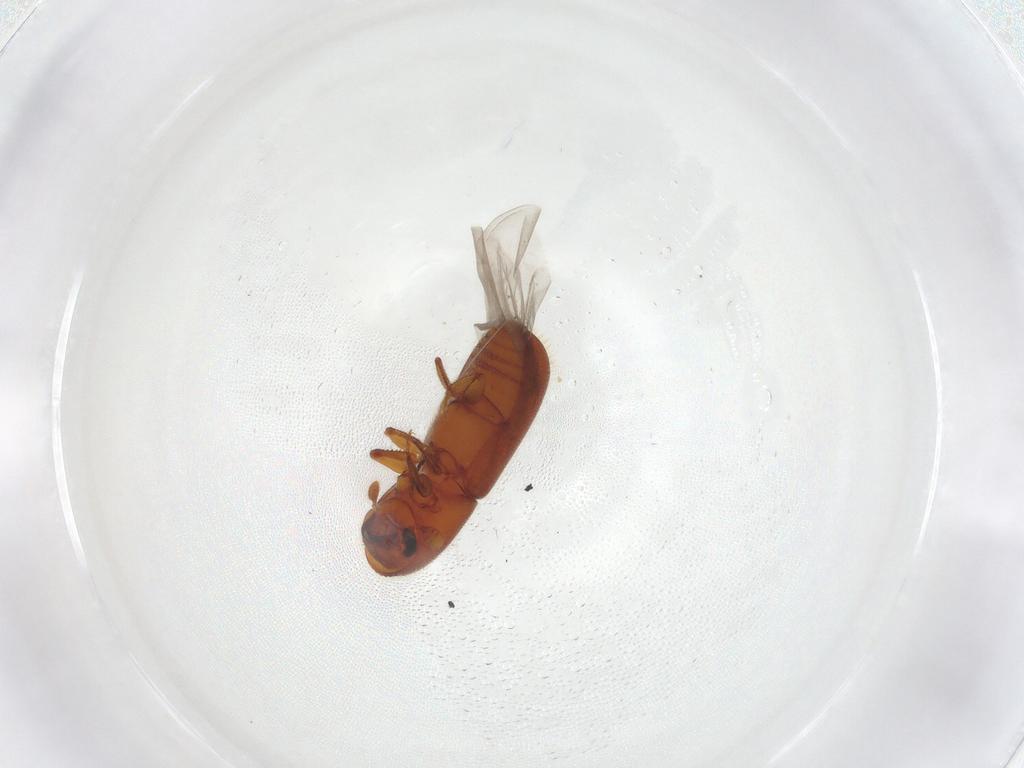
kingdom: Animalia
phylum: Arthropoda
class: Insecta
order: Coleoptera
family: Curculionidae
